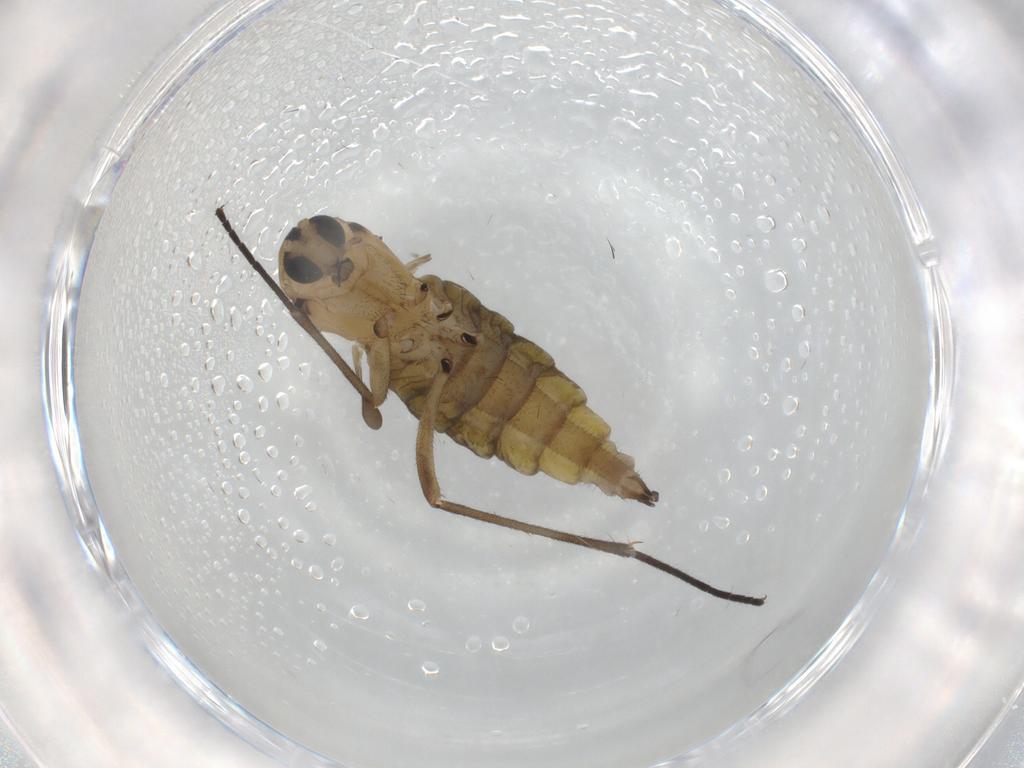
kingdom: Animalia
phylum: Arthropoda
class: Insecta
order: Diptera
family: Sciaridae
